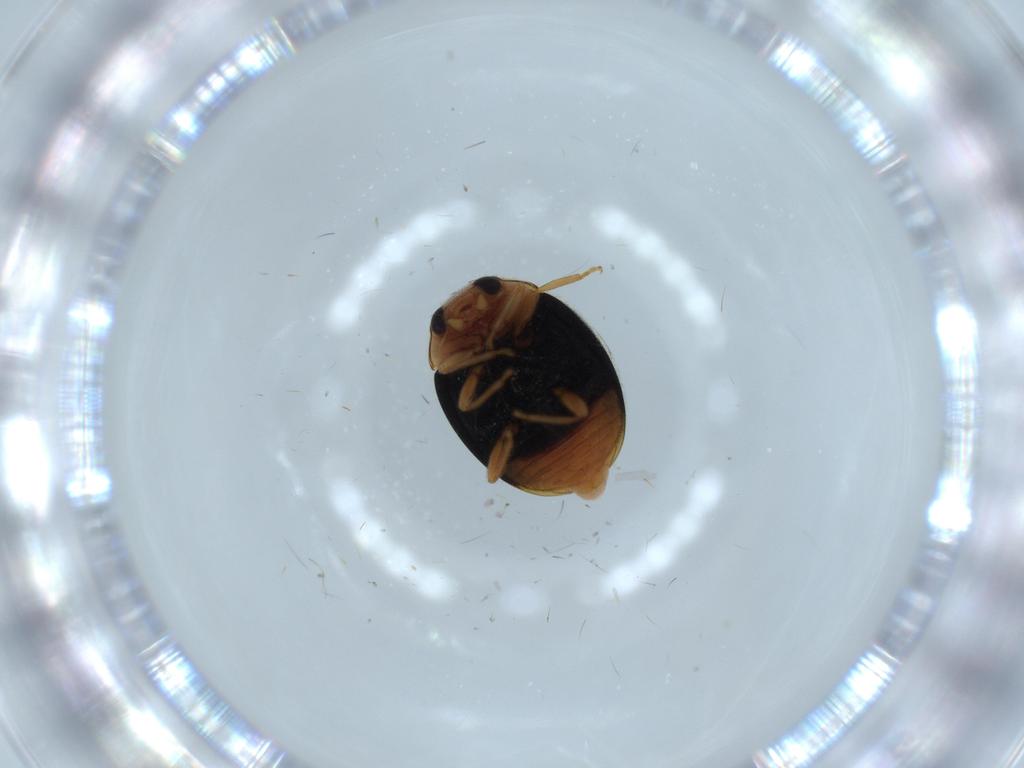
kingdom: Animalia
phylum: Arthropoda
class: Insecta
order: Coleoptera
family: Coccinellidae
